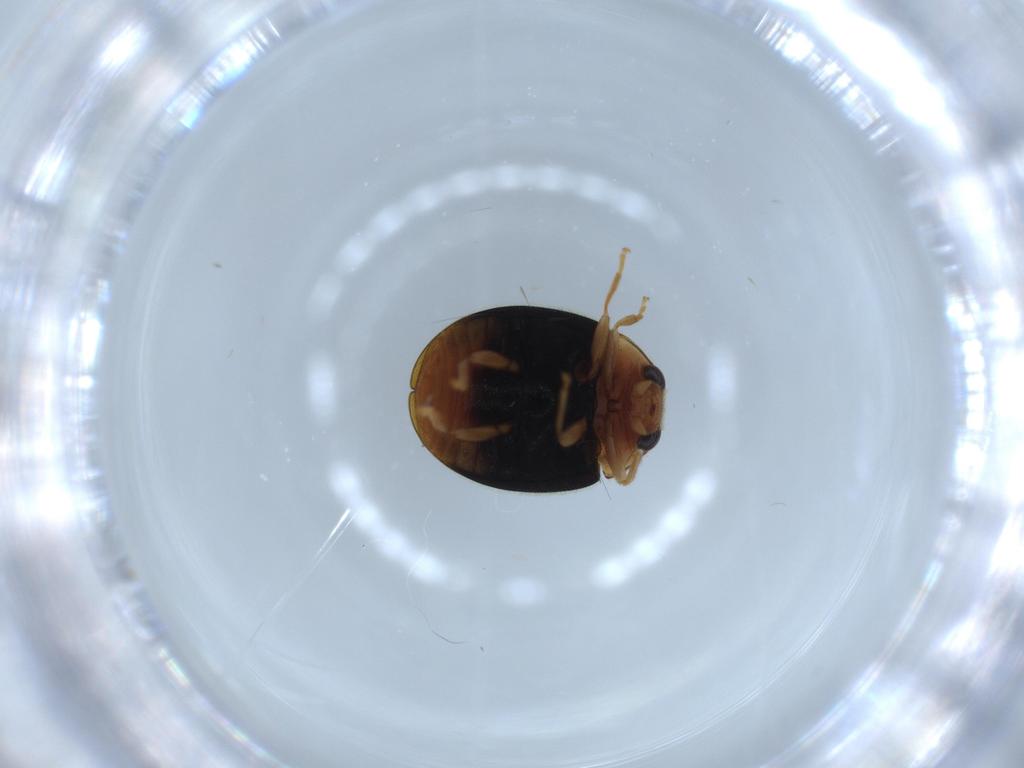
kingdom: Animalia
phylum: Arthropoda
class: Insecta
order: Coleoptera
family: Coccinellidae
